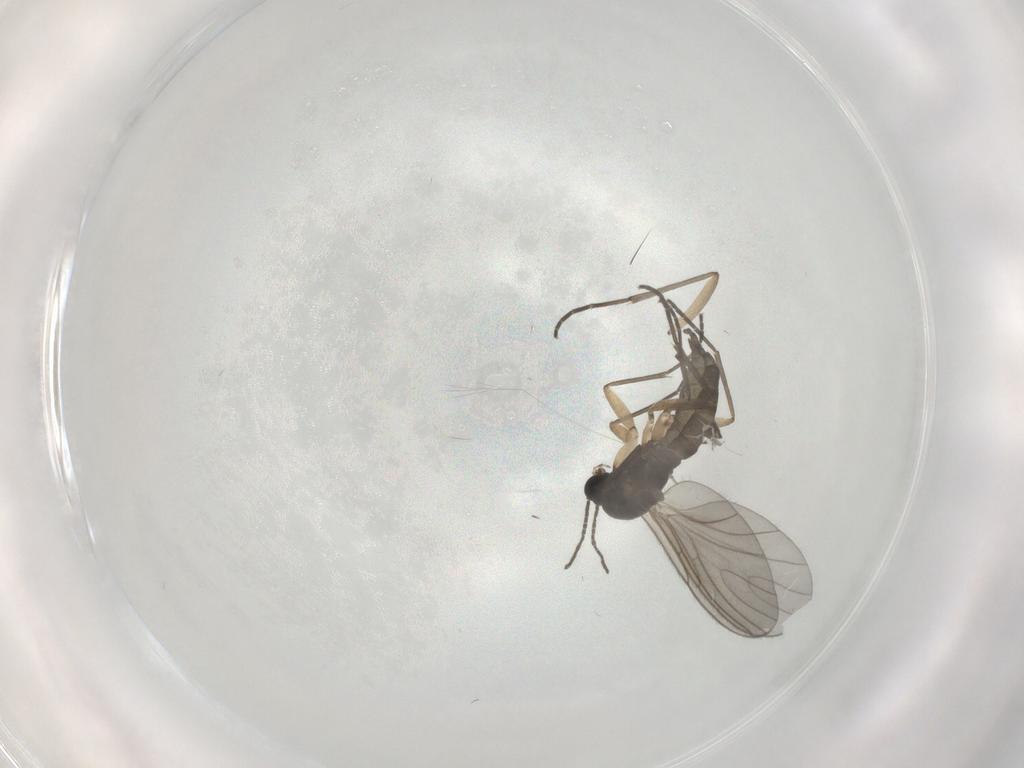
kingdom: Animalia
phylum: Arthropoda
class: Insecta
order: Diptera
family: Sciaridae
